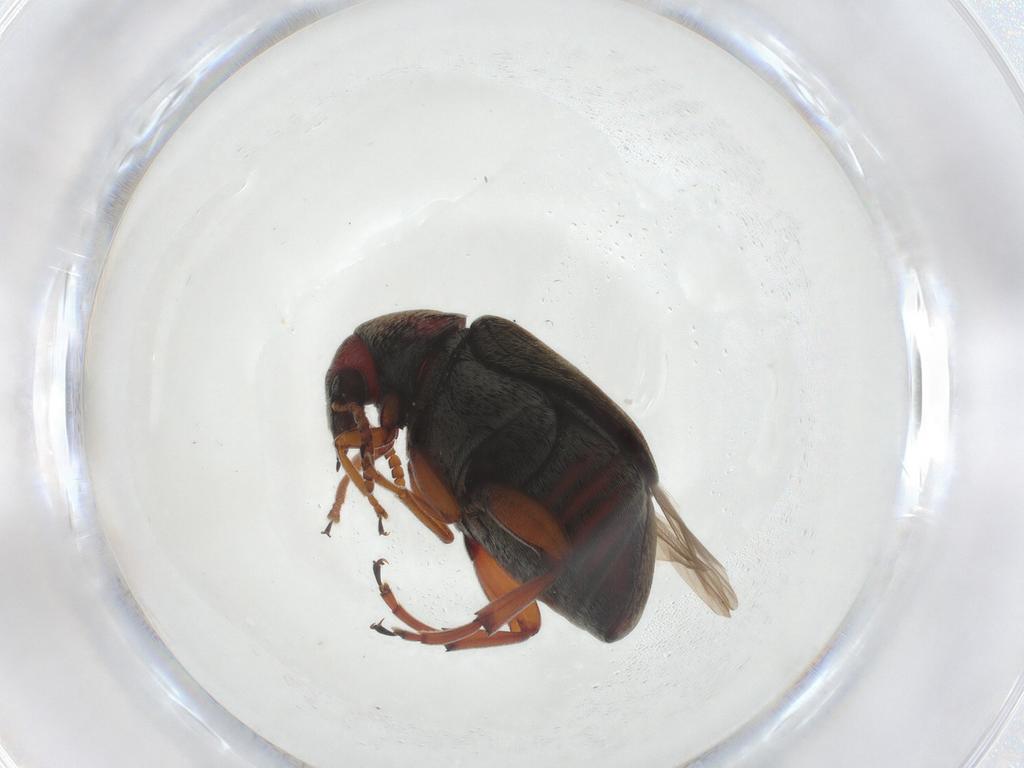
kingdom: Animalia
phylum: Arthropoda
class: Insecta
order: Coleoptera
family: Chrysomelidae
